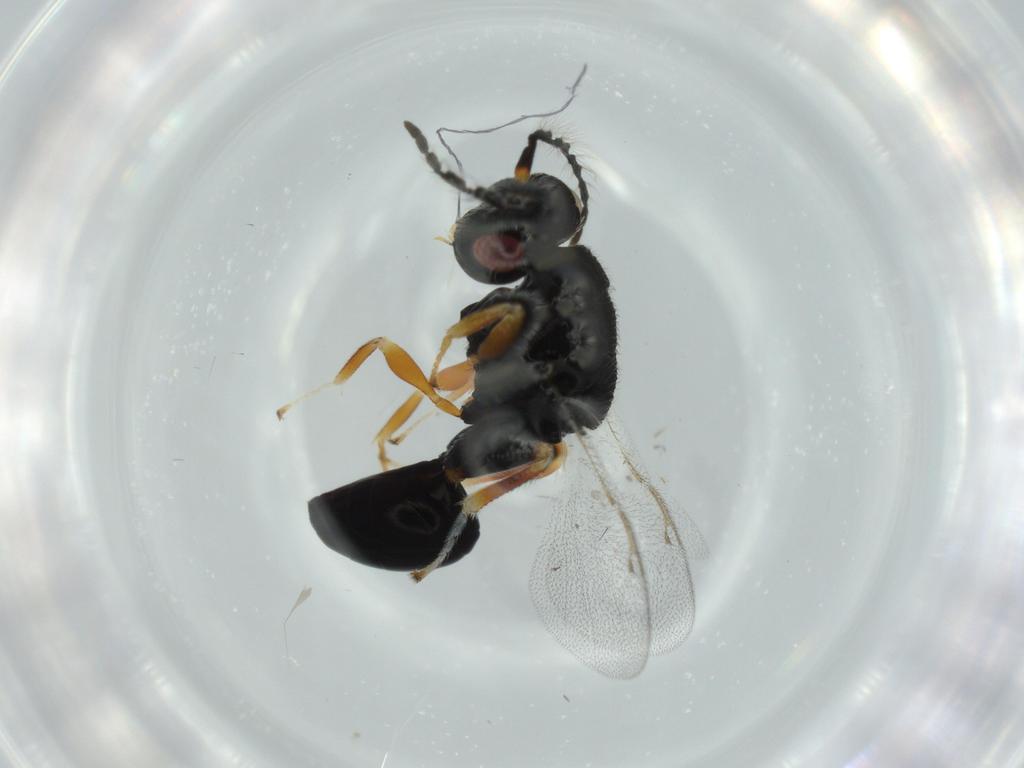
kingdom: Animalia
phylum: Arthropoda
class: Insecta
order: Hymenoptera
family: Eurytomidae
